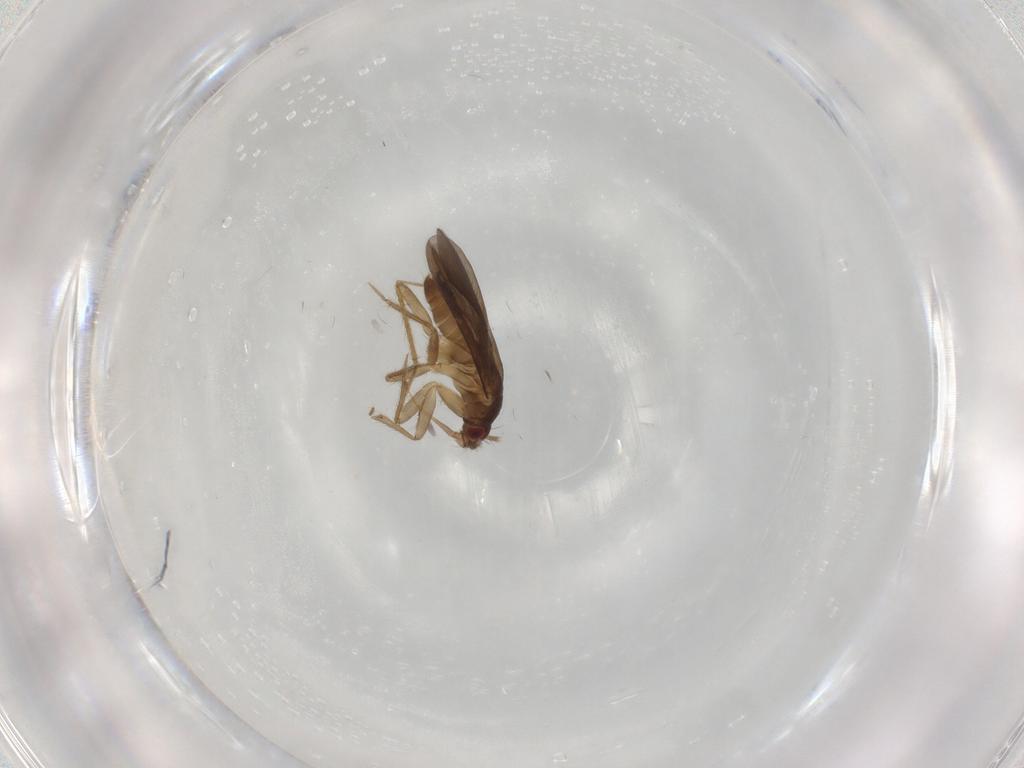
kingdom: Animalia
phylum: Arthropoda
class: Insecta
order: Hemiptera
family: Ceratocombidae
